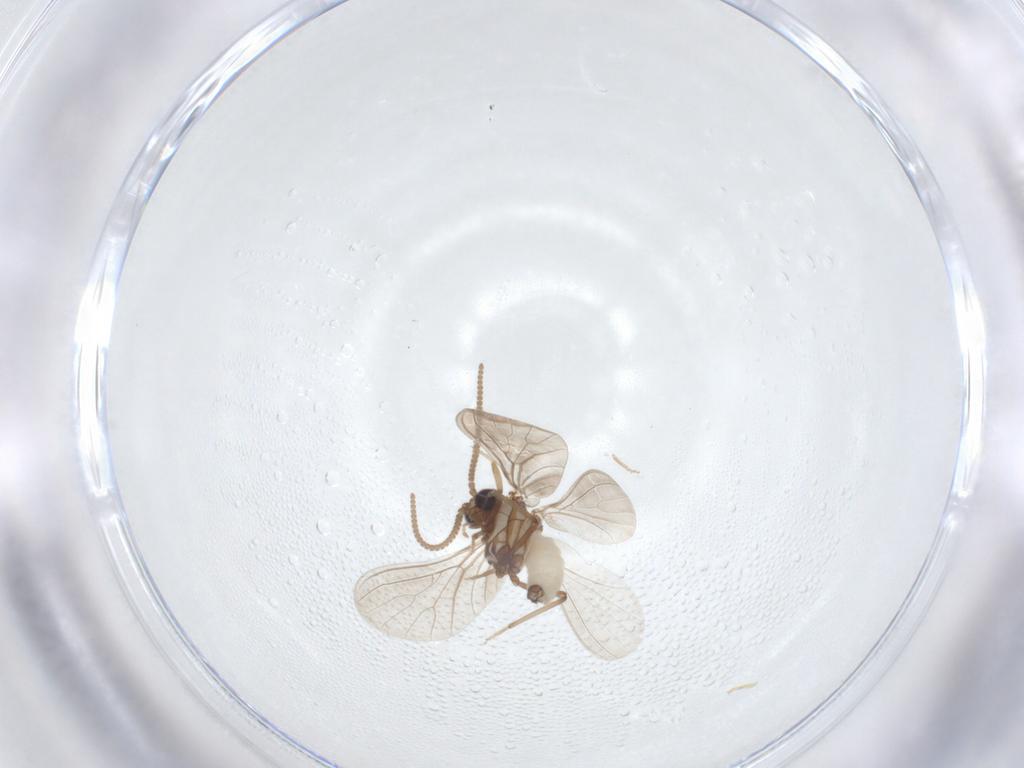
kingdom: Animalia
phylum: Arthropoda
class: Insecta
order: Neuroptera
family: Coniopterygidae
